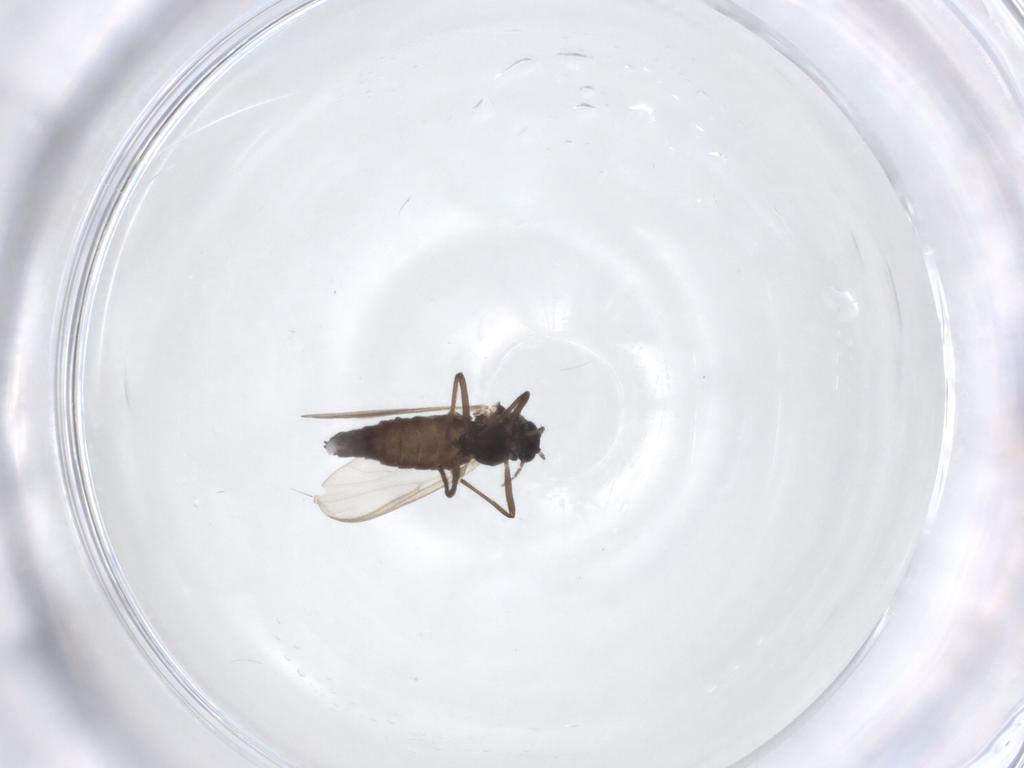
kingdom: Animalia
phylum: Arthropoda
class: Insecta
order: Diptera
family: Chironomidae
